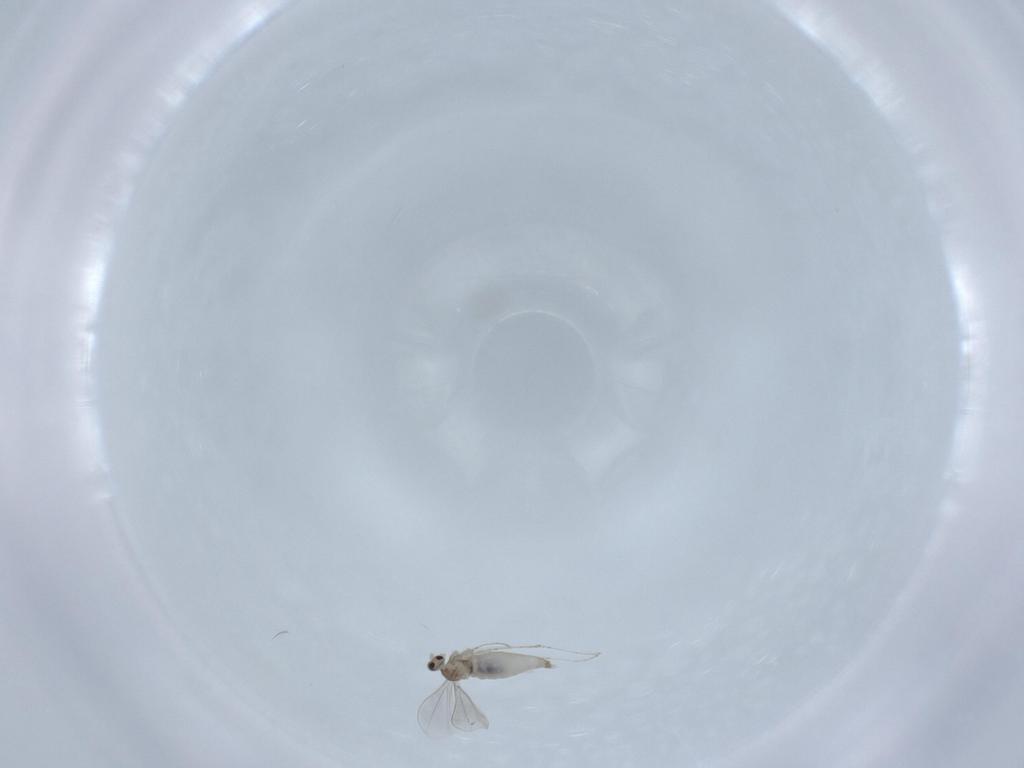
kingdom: Animalia
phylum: Arthropoda
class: Insecta
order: Diptera
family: Cecidomyiidae
